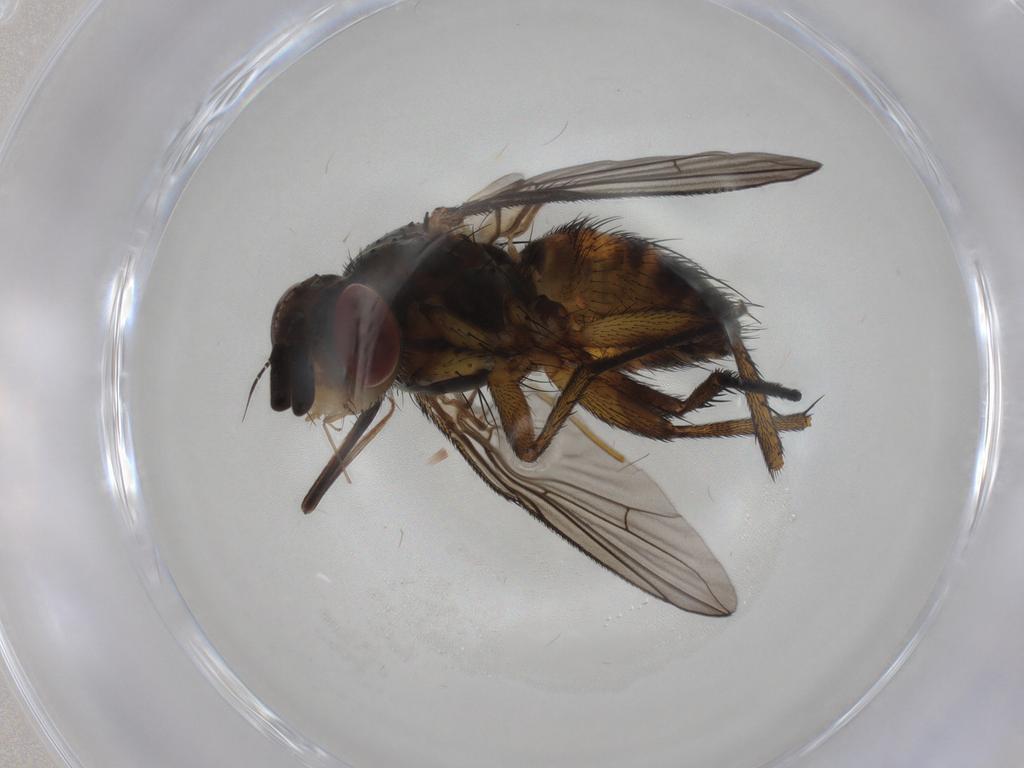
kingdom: Animalia
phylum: Arthropoda
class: Insecta
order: Diptera
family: Tachinidae
